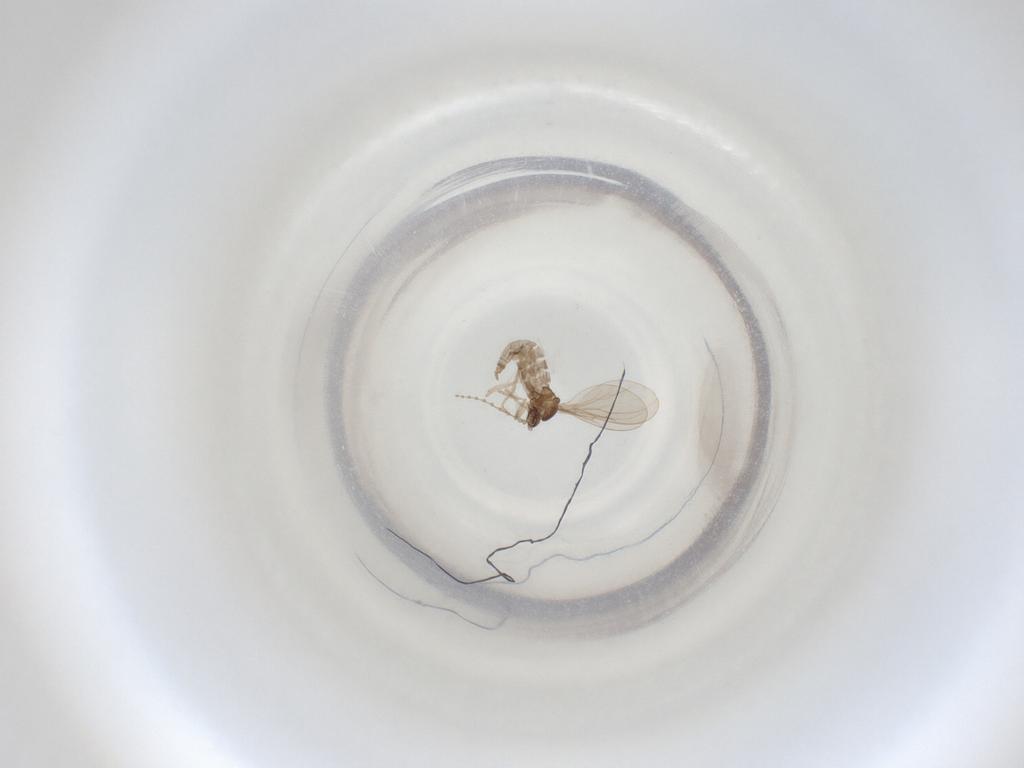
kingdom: Animalia
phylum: Arthropoda
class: Insecta
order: Diptera
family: Cecidomyiidae
